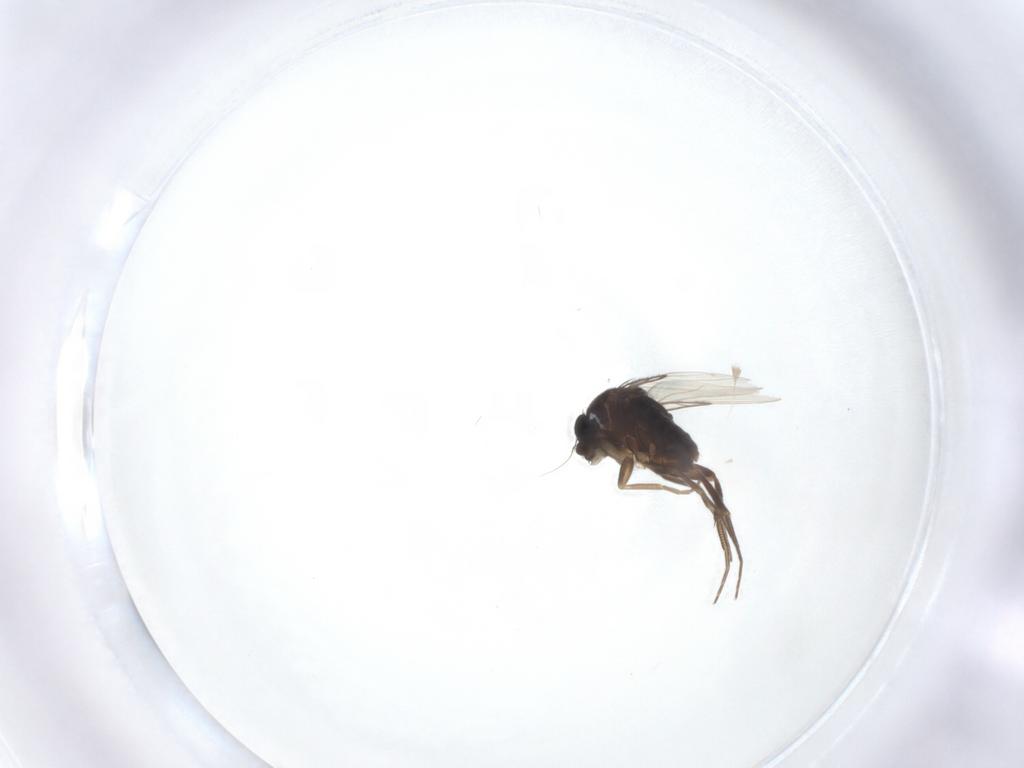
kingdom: Animalia
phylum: Arthropoda
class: Insecta
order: Diptera
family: Phoridae
